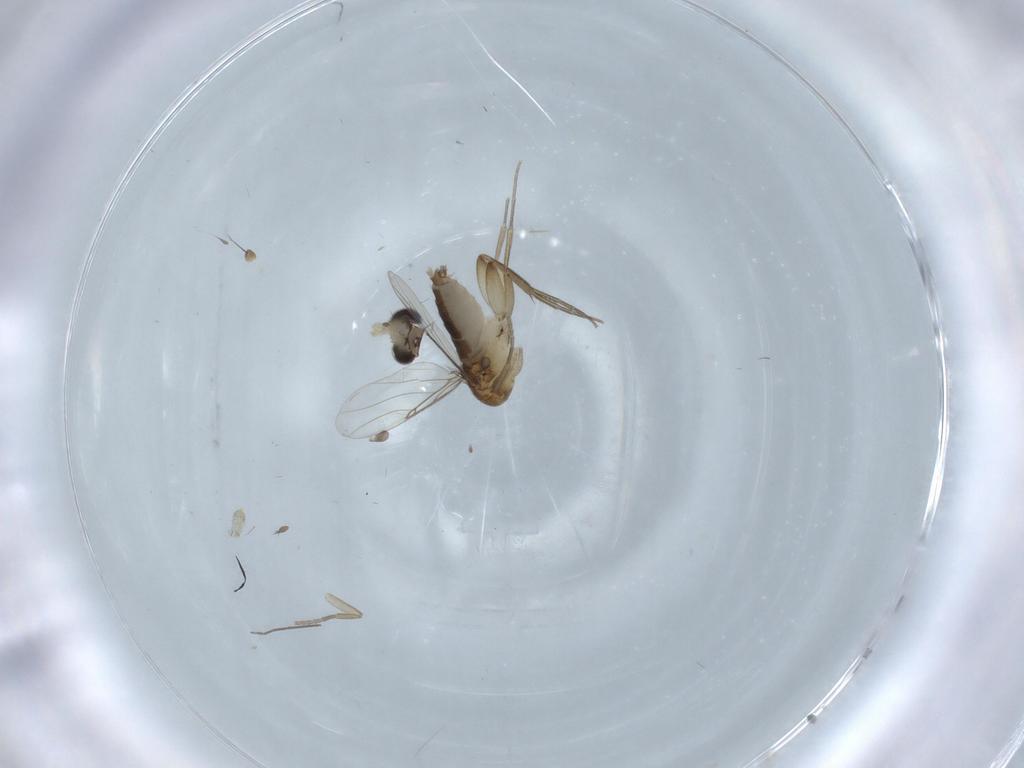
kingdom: Animalia
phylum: Arthropoda
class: Insecta
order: Diptera
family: Phoridae
